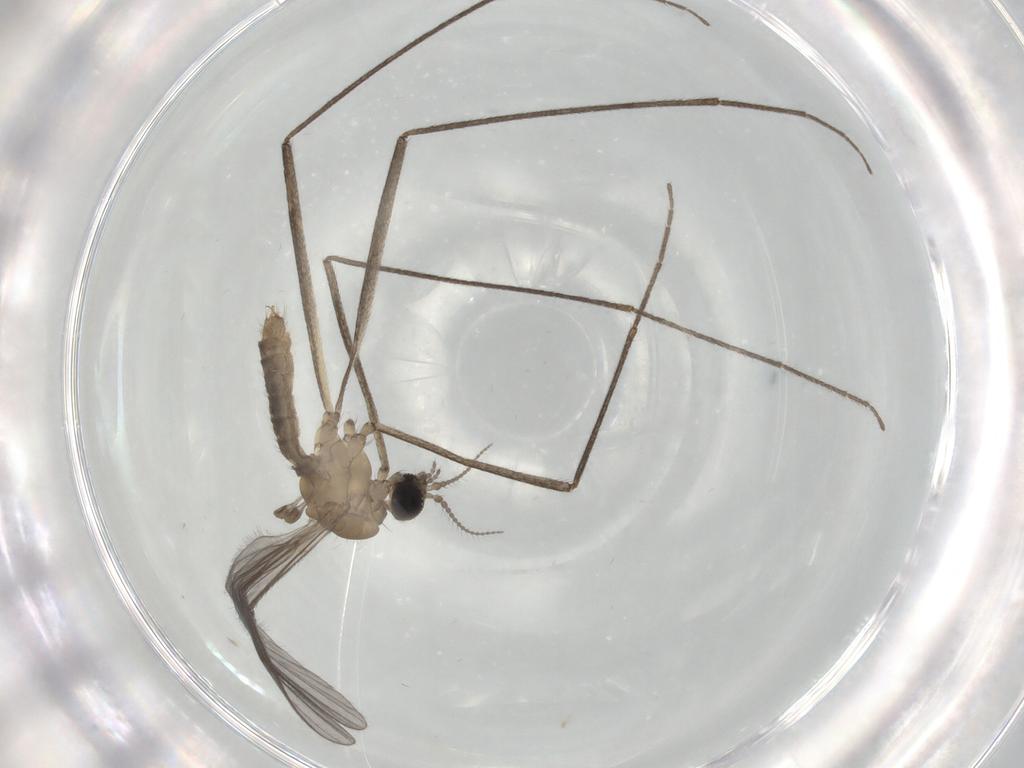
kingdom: Animalia
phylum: Arthropoda
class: Insecta
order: Diptera
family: Limoniidae
